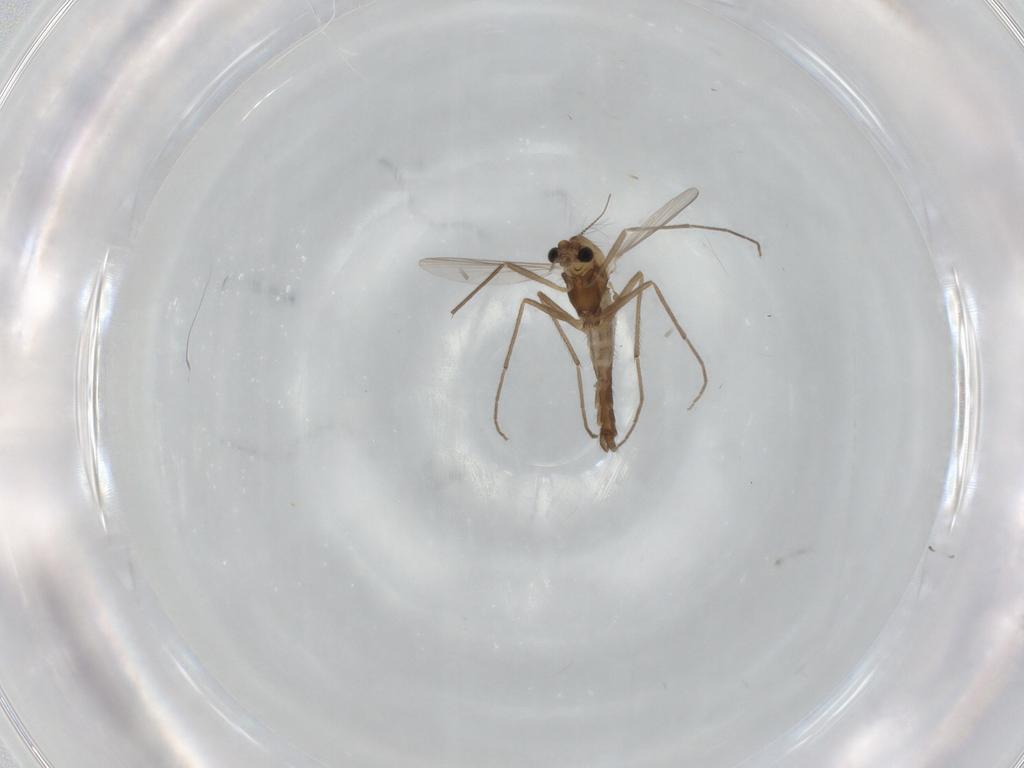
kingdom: Animalia
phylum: Arthropoda
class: Insecta
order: Diptera
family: Chironomidae
